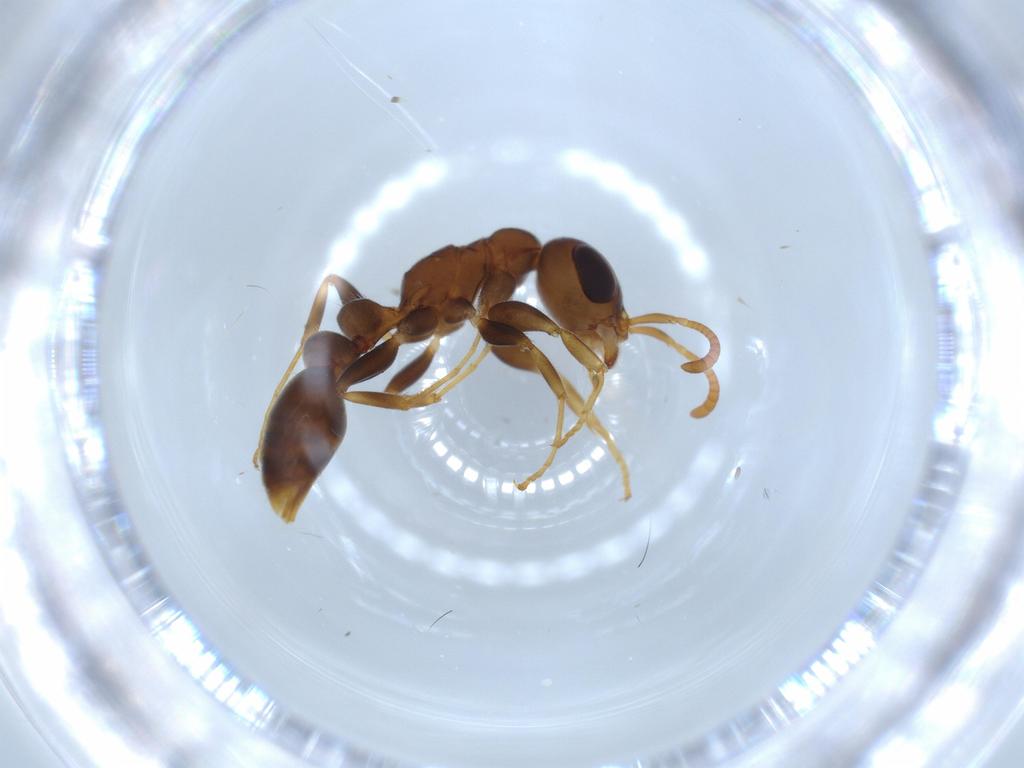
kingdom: Animalia
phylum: Arthropoda
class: Insecta
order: Hymenoptera
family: Formicidae
